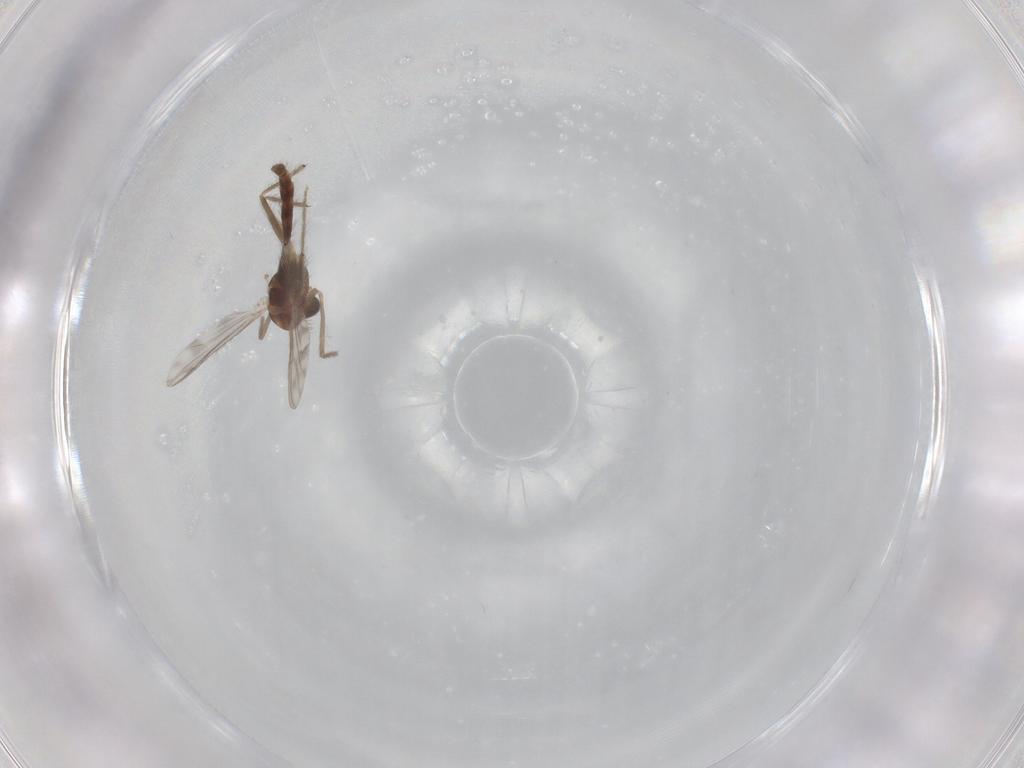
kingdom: Animalia
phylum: Arthropoda
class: Insecta
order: Diptera
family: Chironomidae
